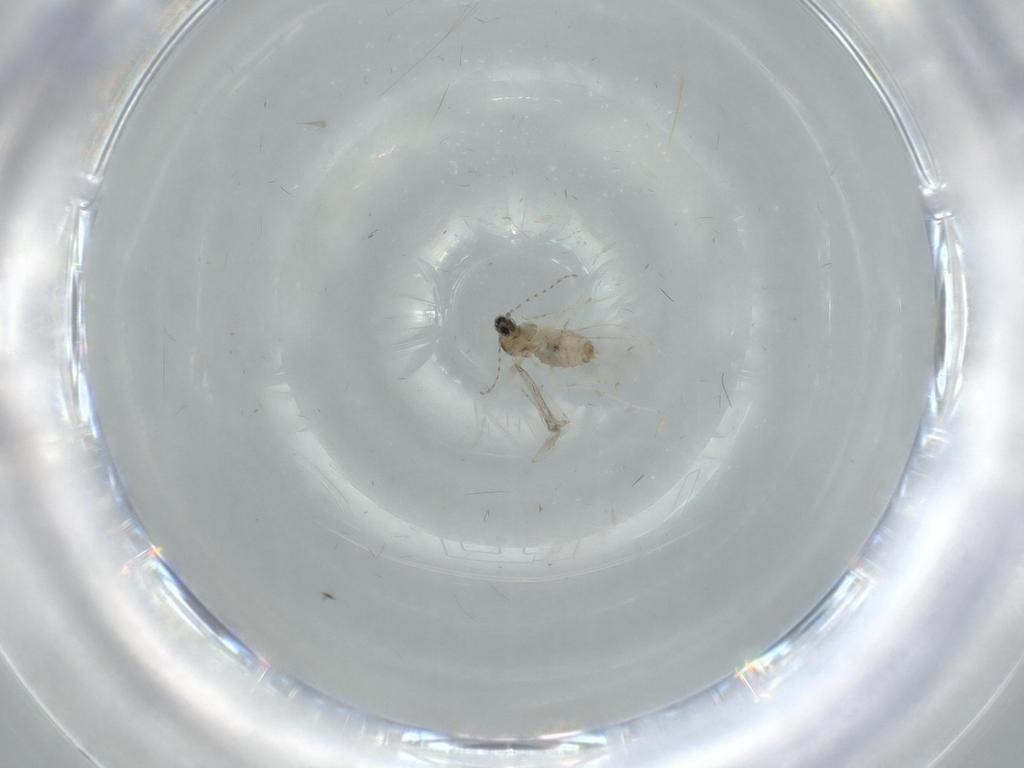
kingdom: Animalia
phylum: Arthropoda
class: Insecta
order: Diptera
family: Cecidomyiidae
